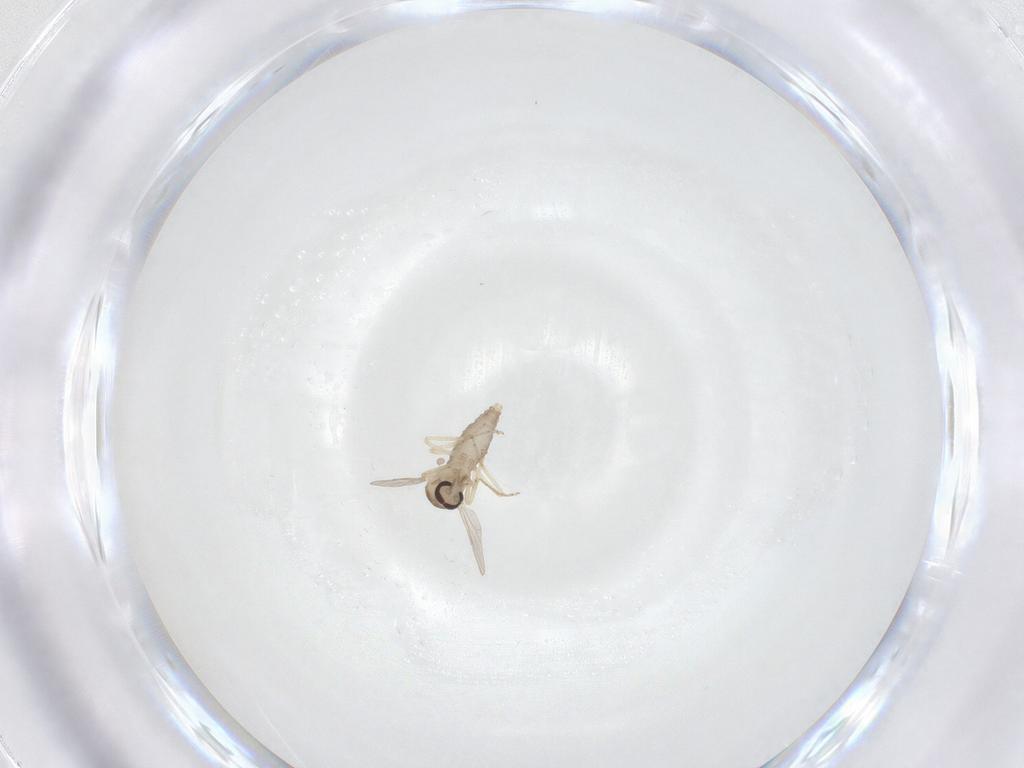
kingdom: Animalia
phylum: Arthropoda
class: Insecta
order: Diptera
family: Ceratopogonidae
